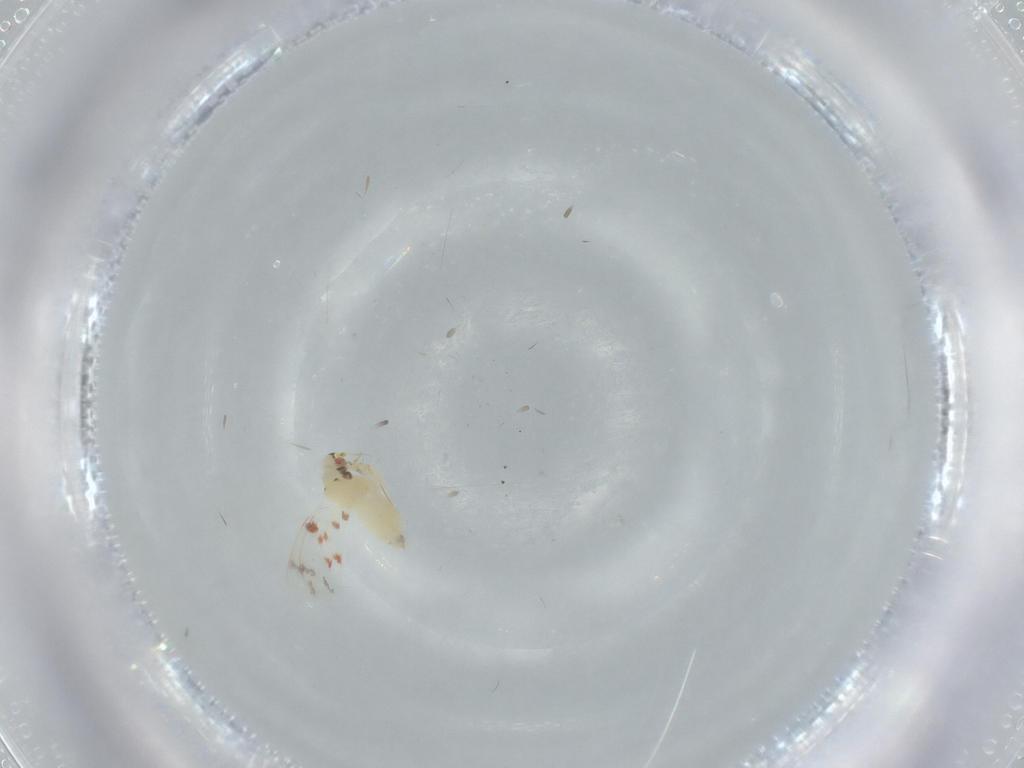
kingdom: Animalia
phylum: Arthropoda
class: Insecta
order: Hemiptera
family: Aleyrodidae
